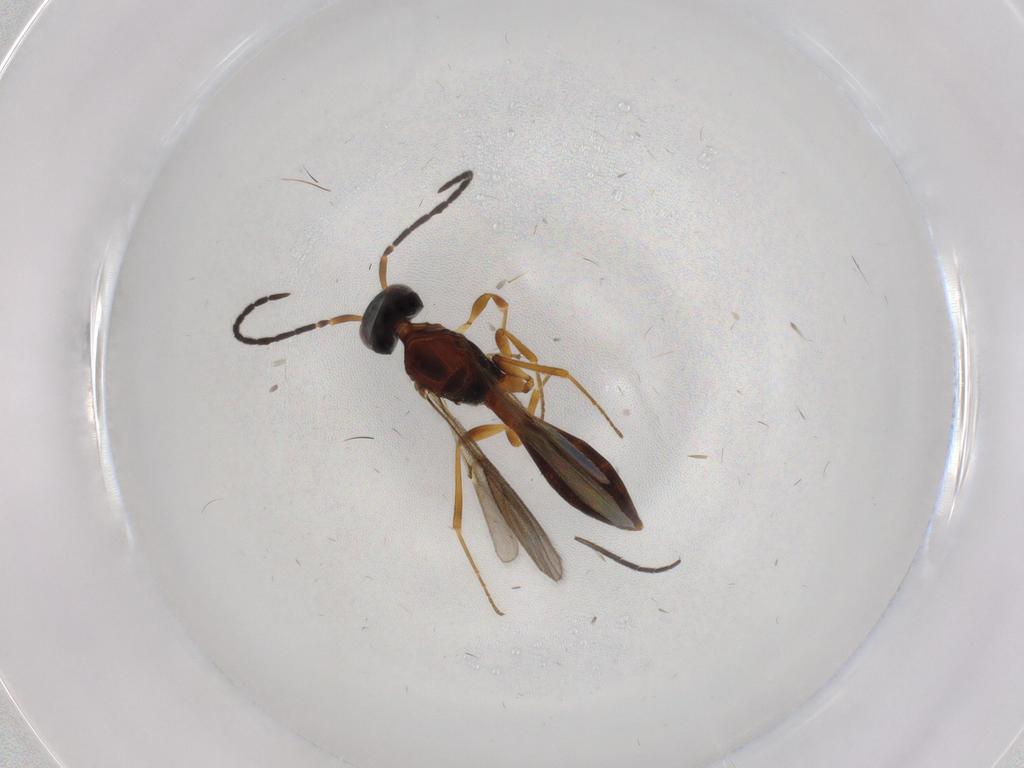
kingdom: Animalia
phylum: Arthropoda
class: Insecta
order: Hymenoptera
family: Scelionidae
